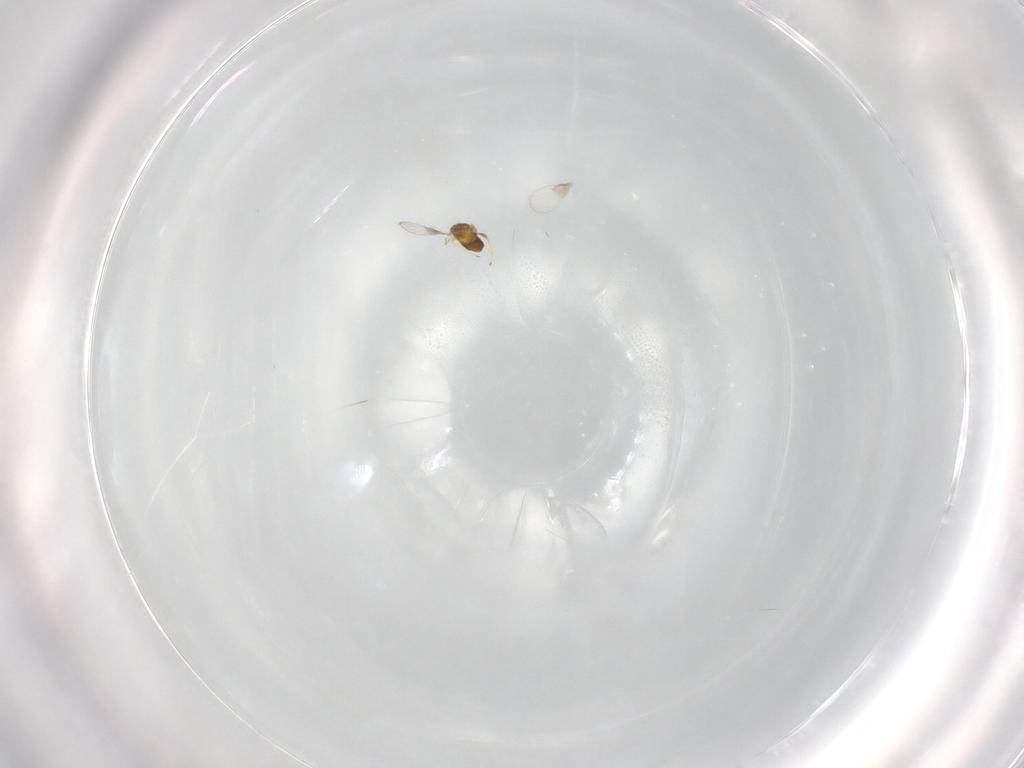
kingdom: Animalia
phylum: Arthropoda
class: Insecta
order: Hymenoptera
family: Trichogrammatidae
